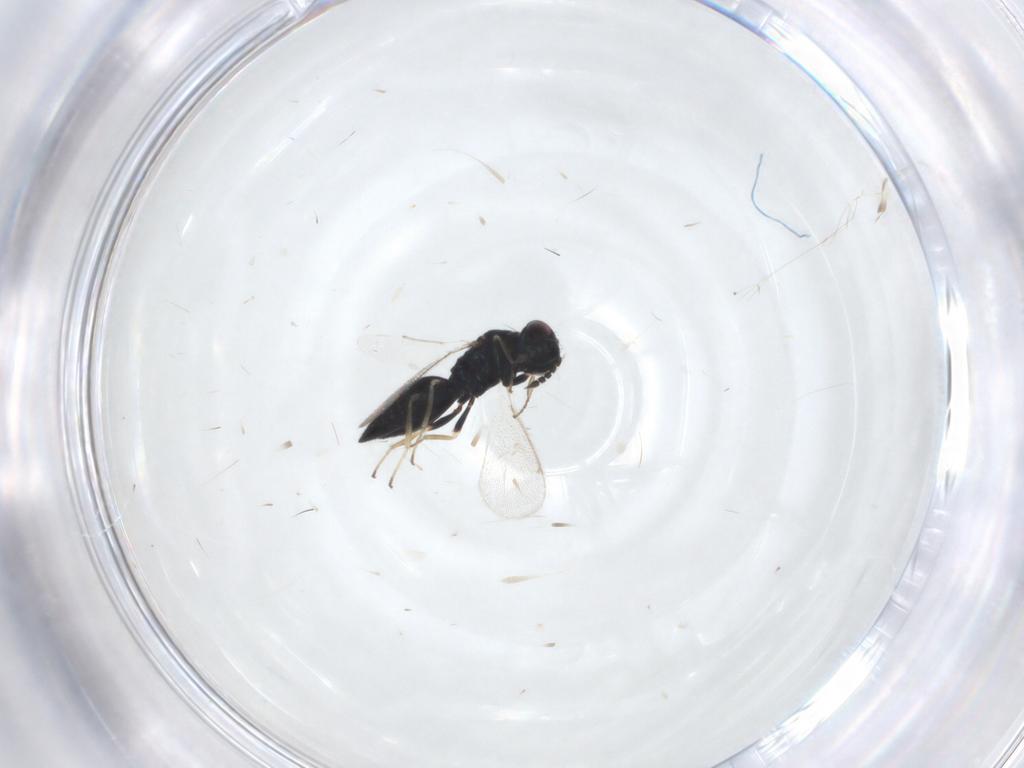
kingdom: Animalia
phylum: Arthropoda
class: Insecta
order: Hymenoptera
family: Eulophidae
